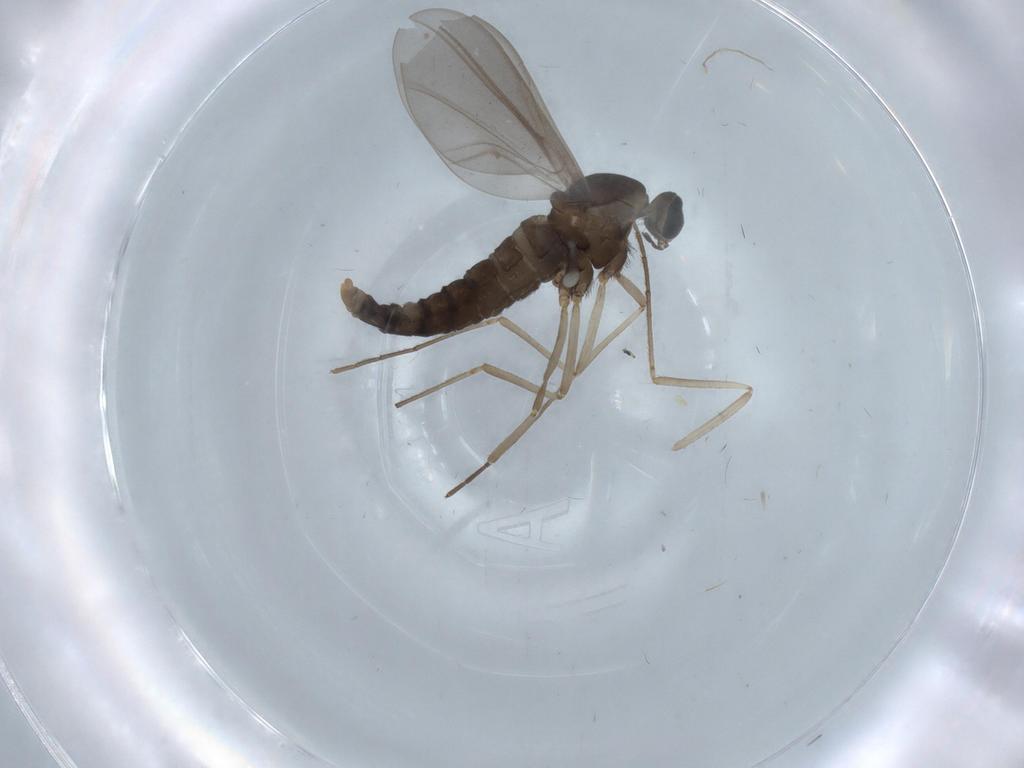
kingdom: Animalia
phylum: Arthropoda
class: Insecta
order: Diptera
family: Cecidomyiidae
